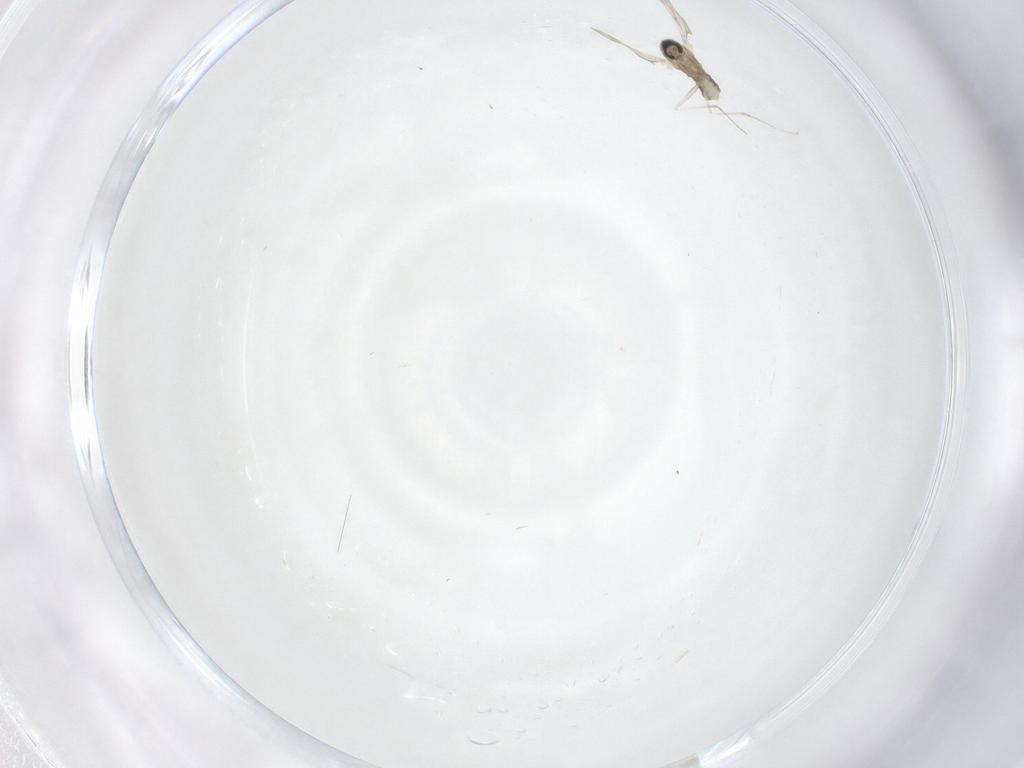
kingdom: Animalia
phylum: Arthropoda
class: Insecta
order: Diptera
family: Cecidomyiidae
